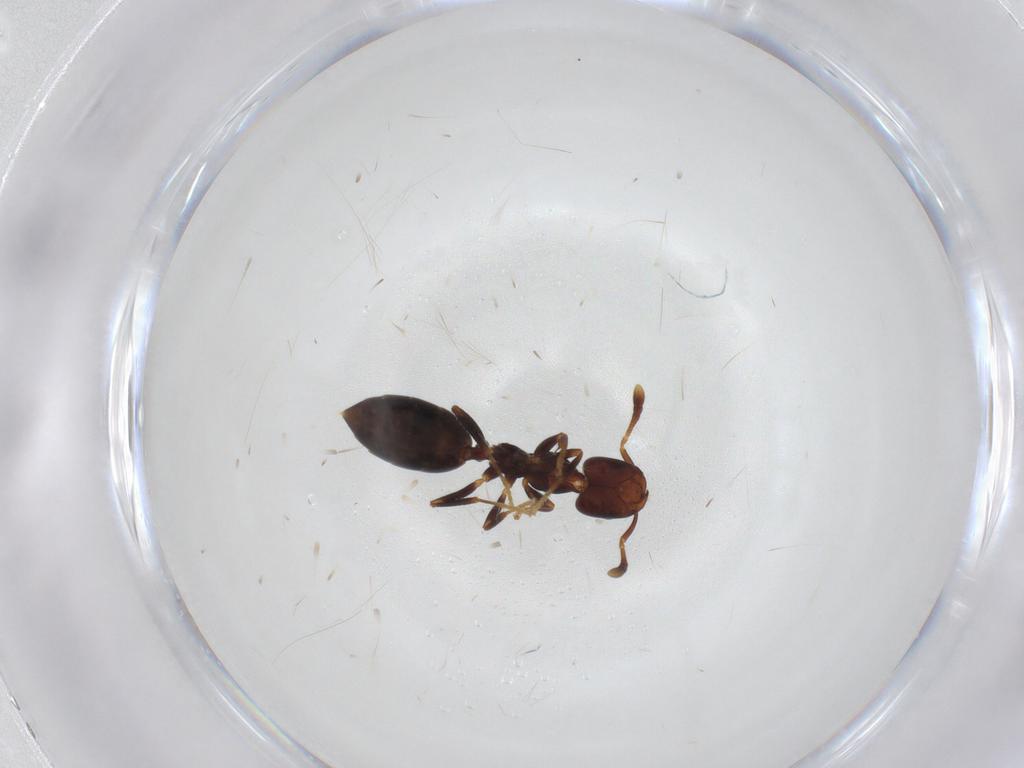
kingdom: Animalia
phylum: Arthropoda
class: Insecta
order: Hymenoptera
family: Formicidae
